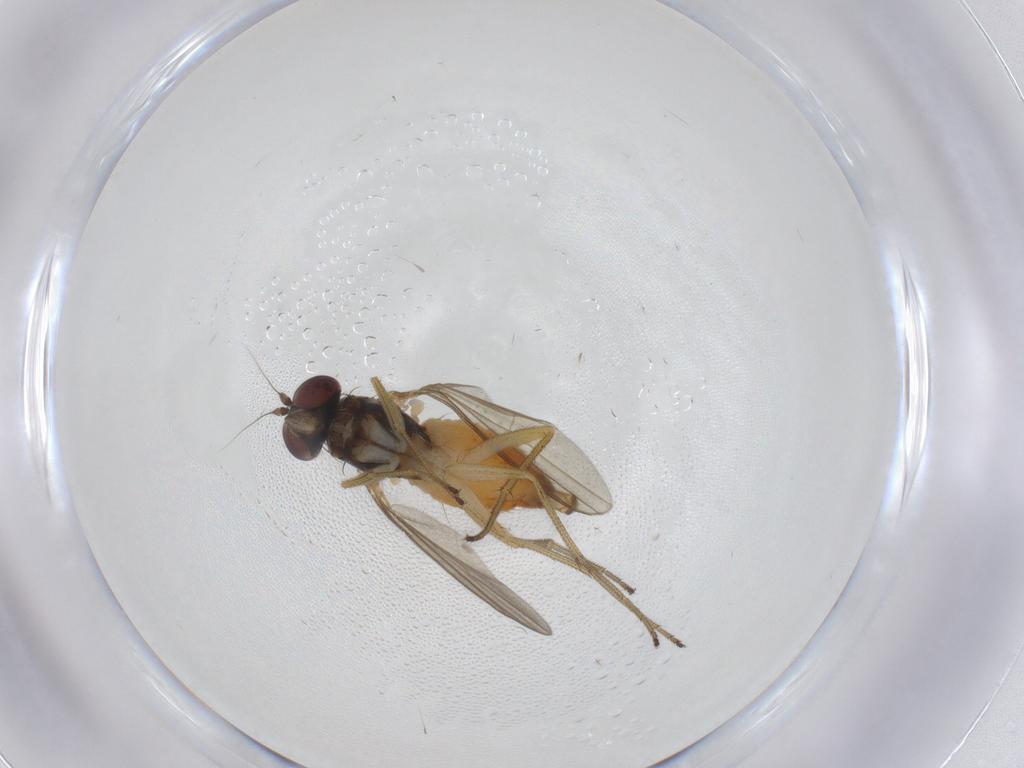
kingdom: Animalia
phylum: Arthropoda
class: Insecta
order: Diptera
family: Dolichopodidae
